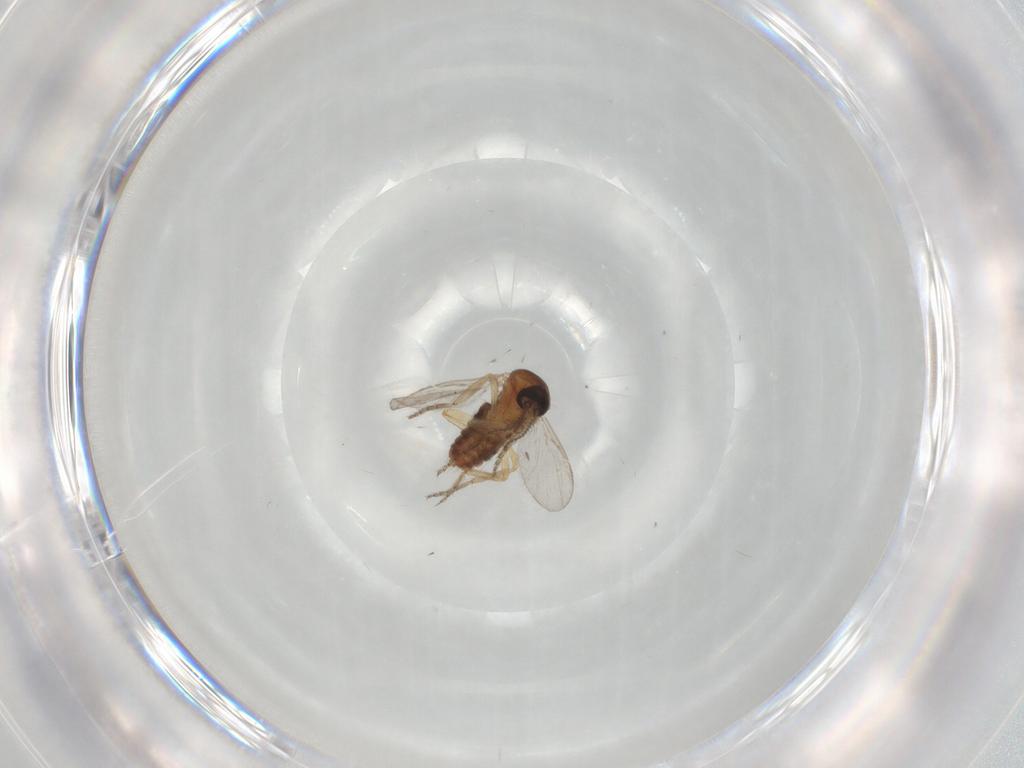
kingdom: Animalia
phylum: Arthropoda
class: Insecta
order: Diptera
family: Ceratopogonidae
